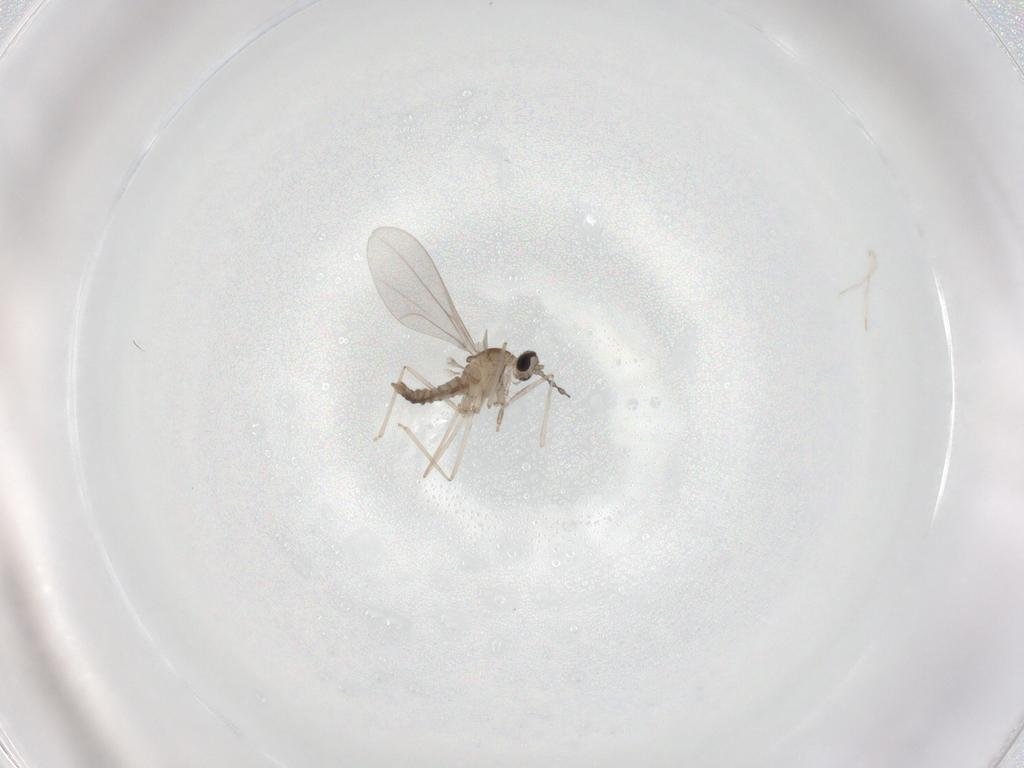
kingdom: Animalia
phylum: Arthropoda
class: Insecta
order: Diptera
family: Cecidomyiidae
